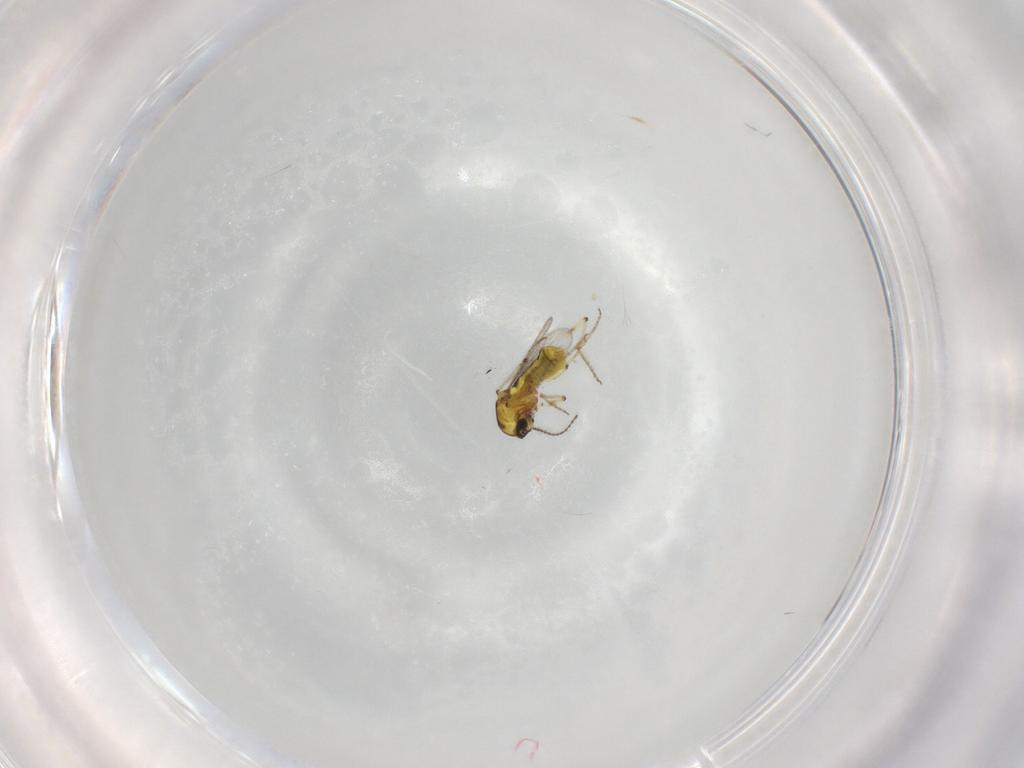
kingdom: Animalia
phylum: Arthropoda
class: Insecta
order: Diptera
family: Ceratopogonidae
